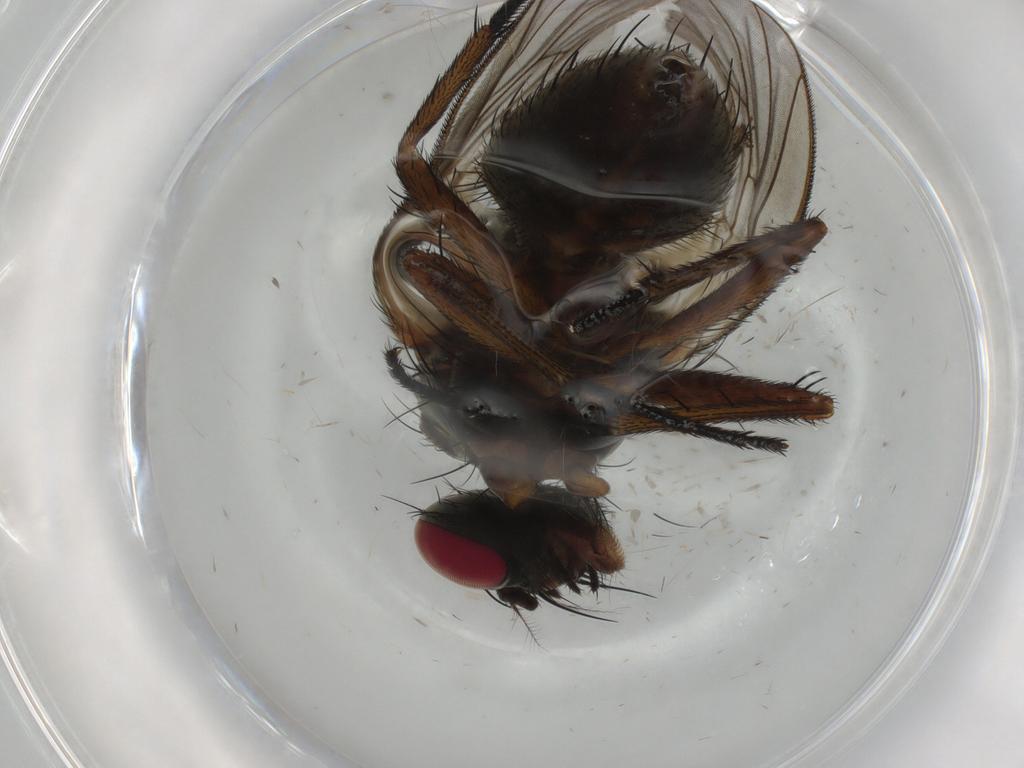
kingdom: Animalia
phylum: Arthropoda
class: Insecta
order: Diptera
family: Muscidae
